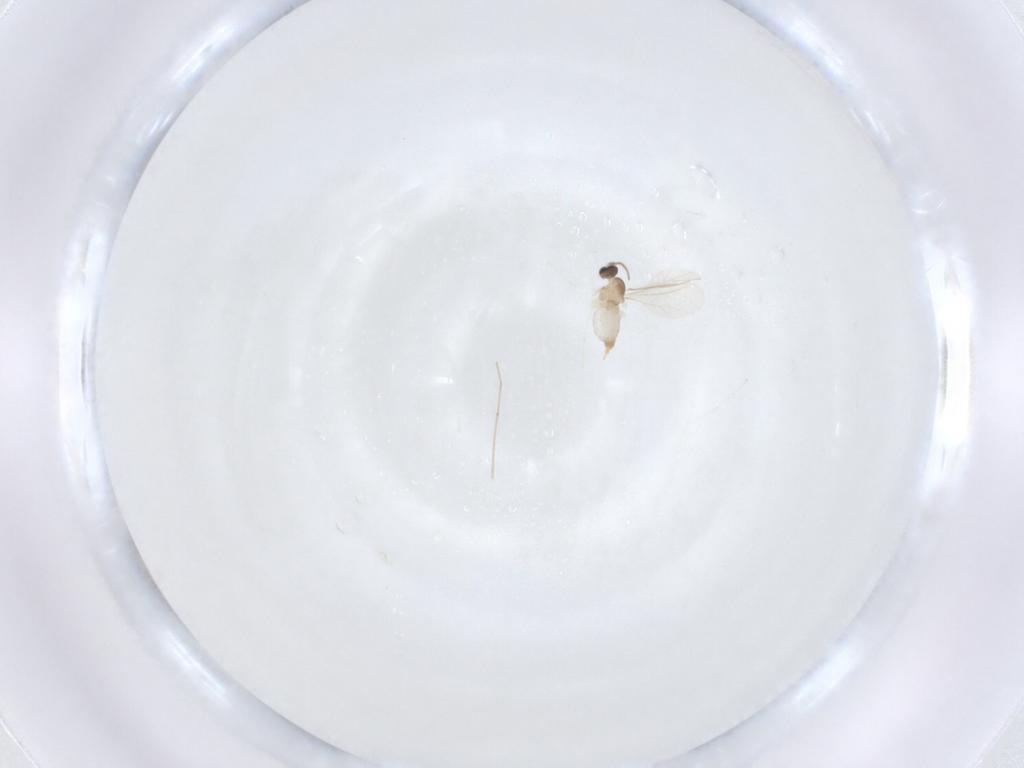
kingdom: Animalia
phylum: Arthropoda
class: Insecta
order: Diptera
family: Cecidomyiidae
